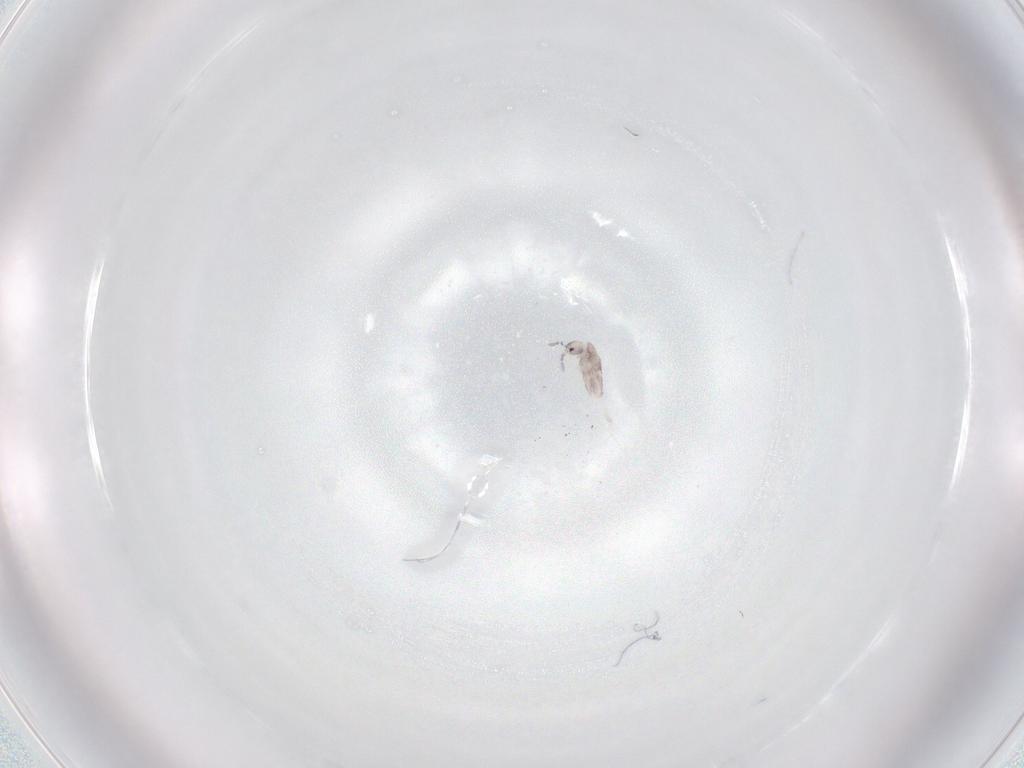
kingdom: Animalia
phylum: Arthropoda
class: Collembola
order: Entomobryomorpha
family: Entomobryidae
